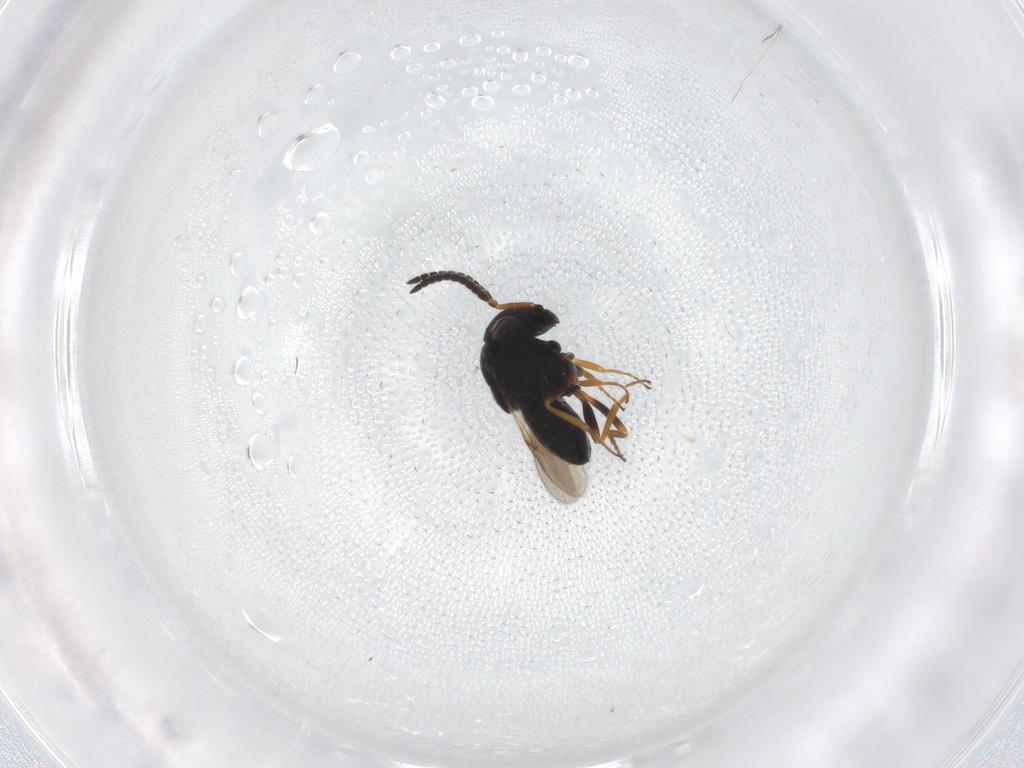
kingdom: Animalia
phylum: Arthropoda
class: Insecta
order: Hymenoptera
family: Scelionidae
